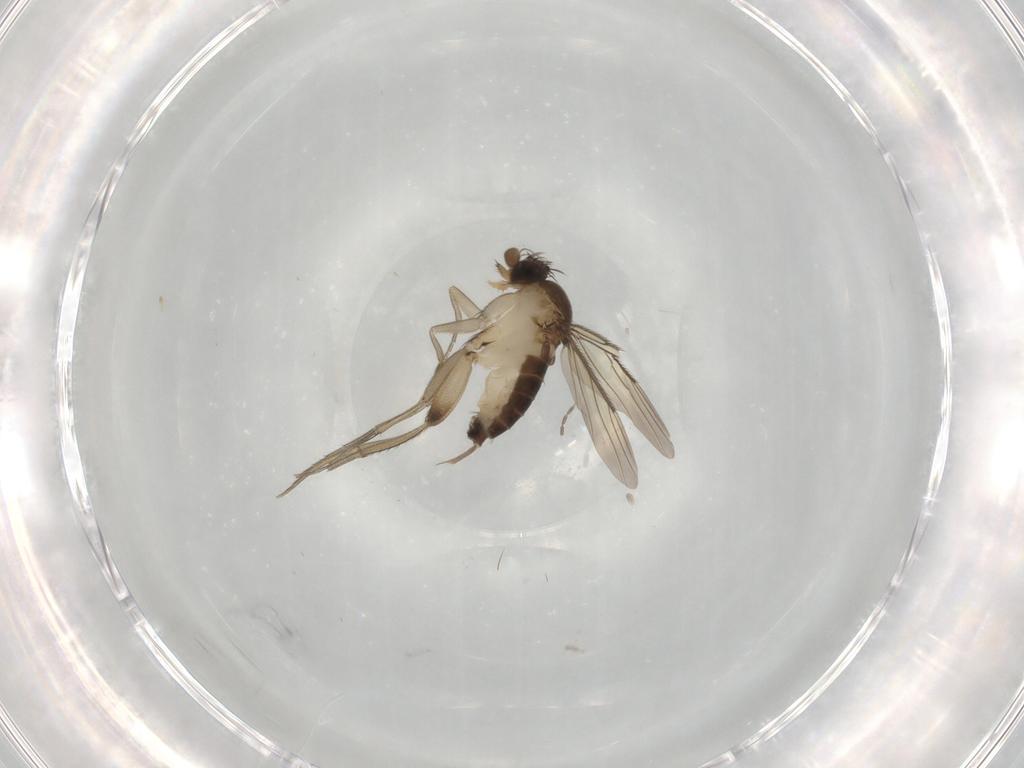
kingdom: Animalia
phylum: Arthropoda
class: Insecta
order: Diptera
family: Phoridae
